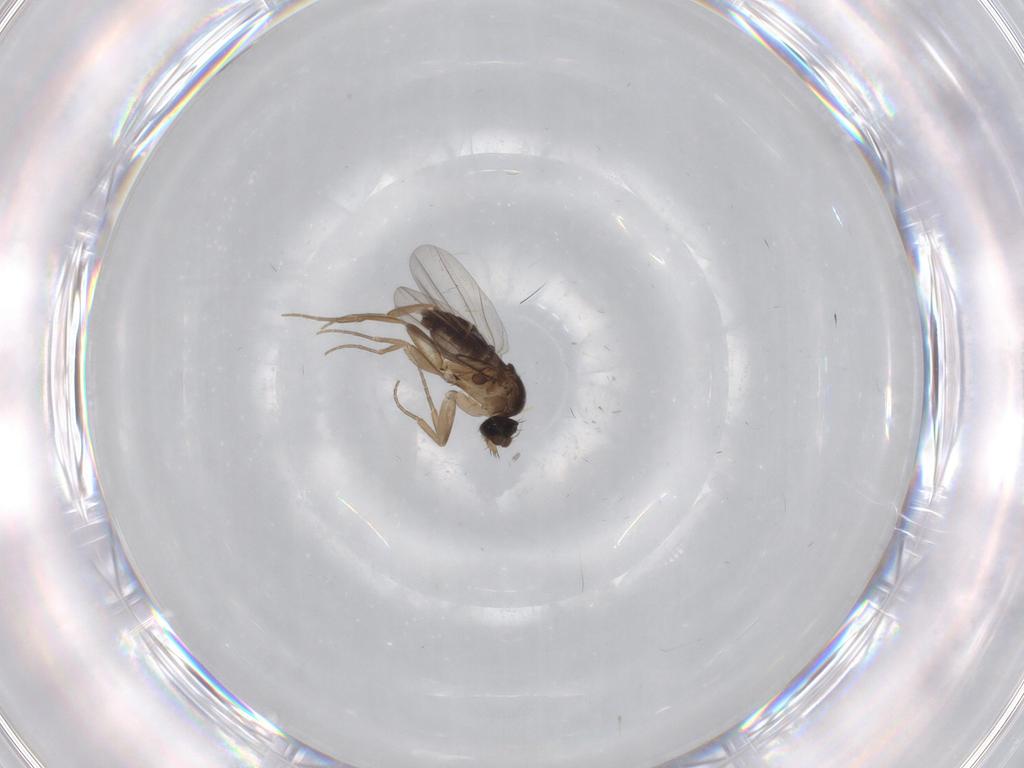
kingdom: Animalia
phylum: Arthropoda
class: Insecta
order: Diptera
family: Phoridae
